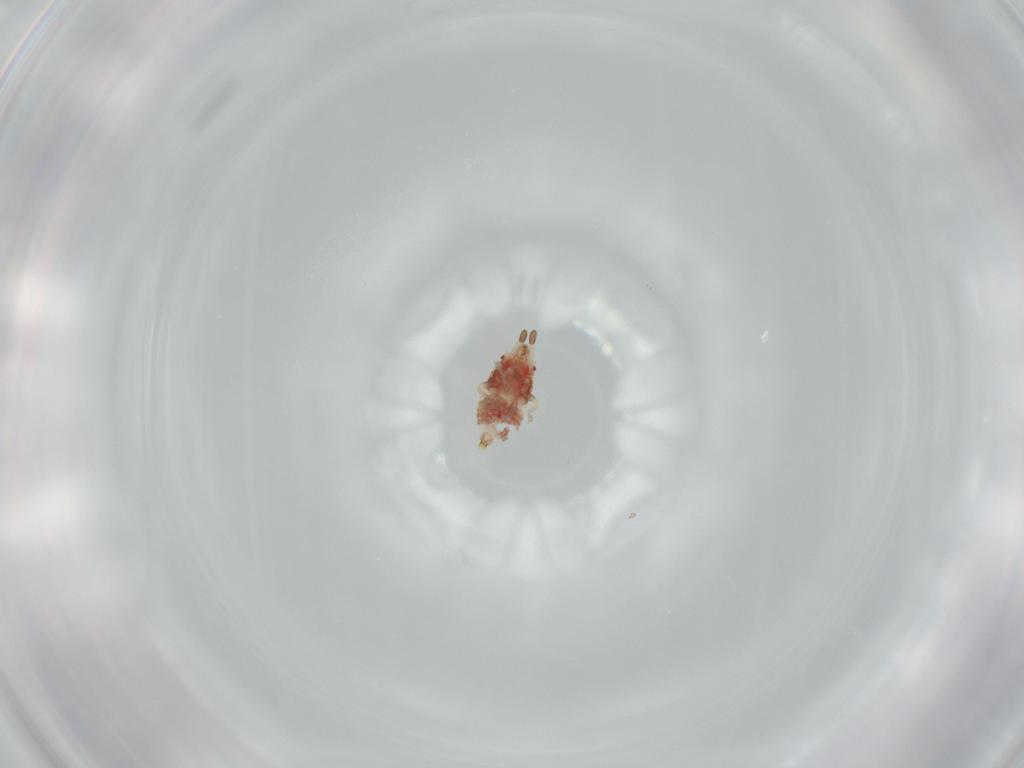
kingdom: Animalia
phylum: Arthropoda
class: Insecta
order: Hemiptera
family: Aradidae
